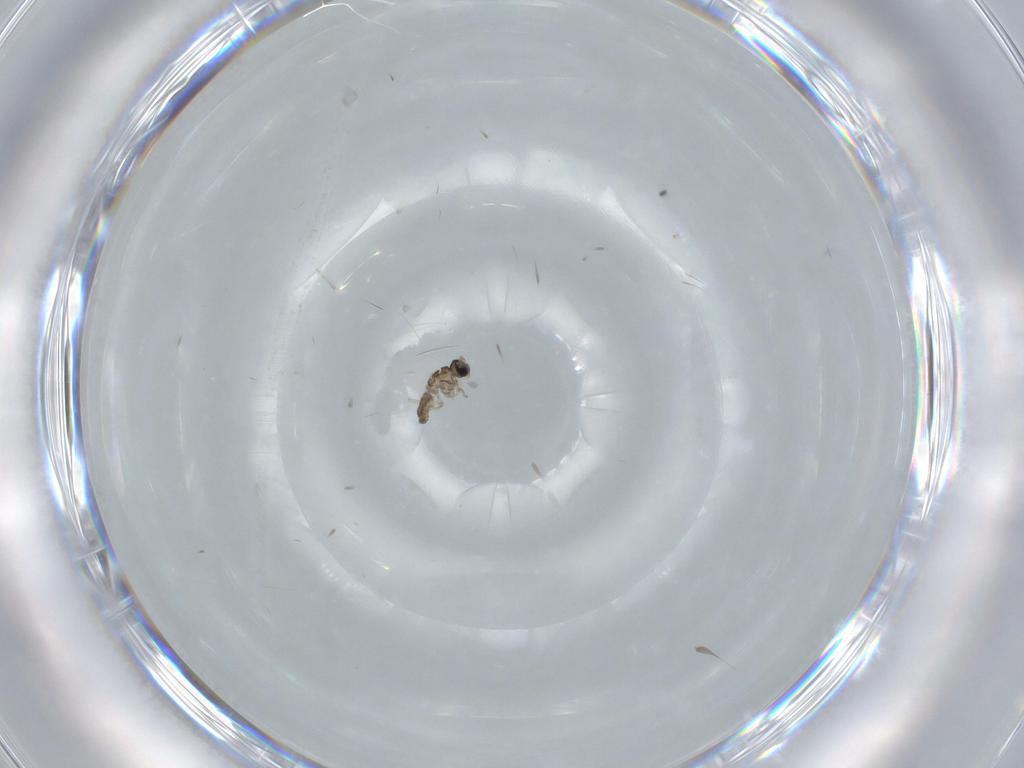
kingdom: Animalia
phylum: Arthropoda
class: Insecta
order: Diptera
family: Cecidomyiidae
